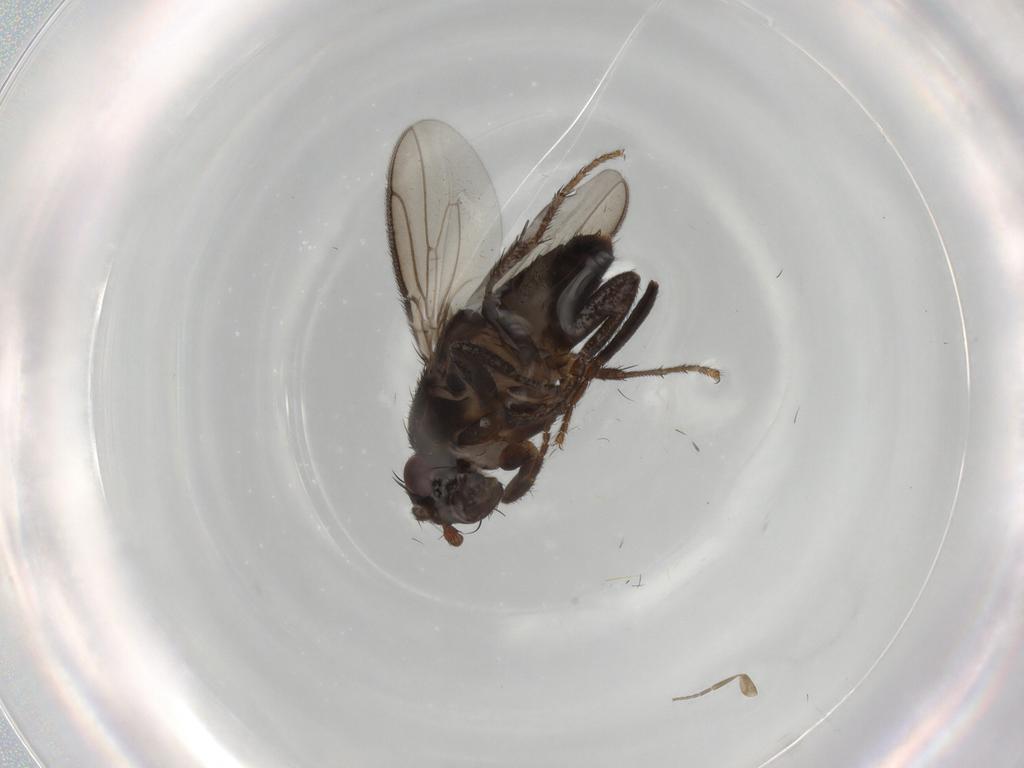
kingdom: Animalia
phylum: Arthropoda
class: Insecta
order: Diptera
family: Sphaeroceridae
